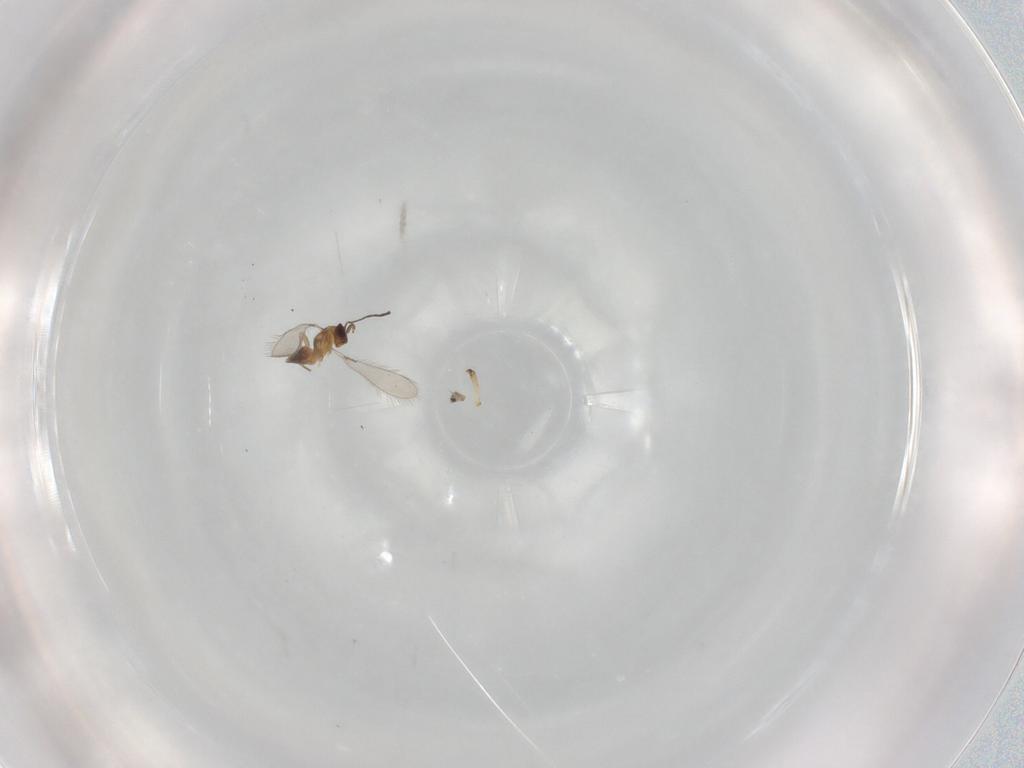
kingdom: Animalia
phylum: Arthropoda
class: Insecta
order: Hymenoptera
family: Mymaridae
